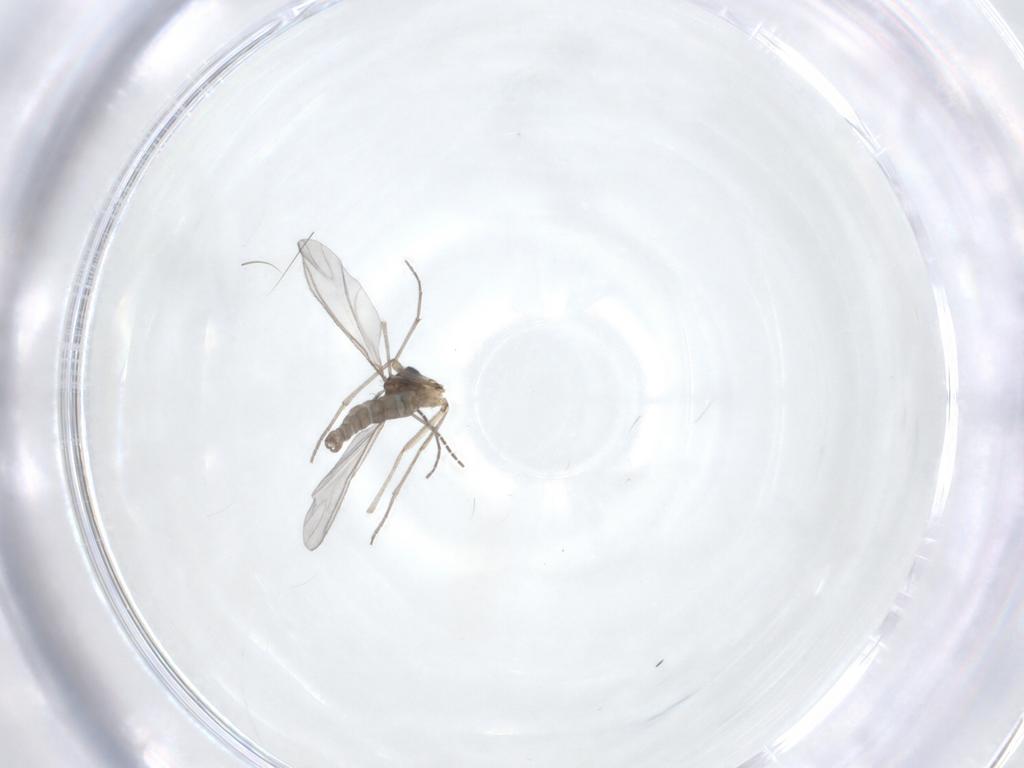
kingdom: Animalia
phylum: Arthropoda
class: Insecta
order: Diptera
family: Sciaridae
